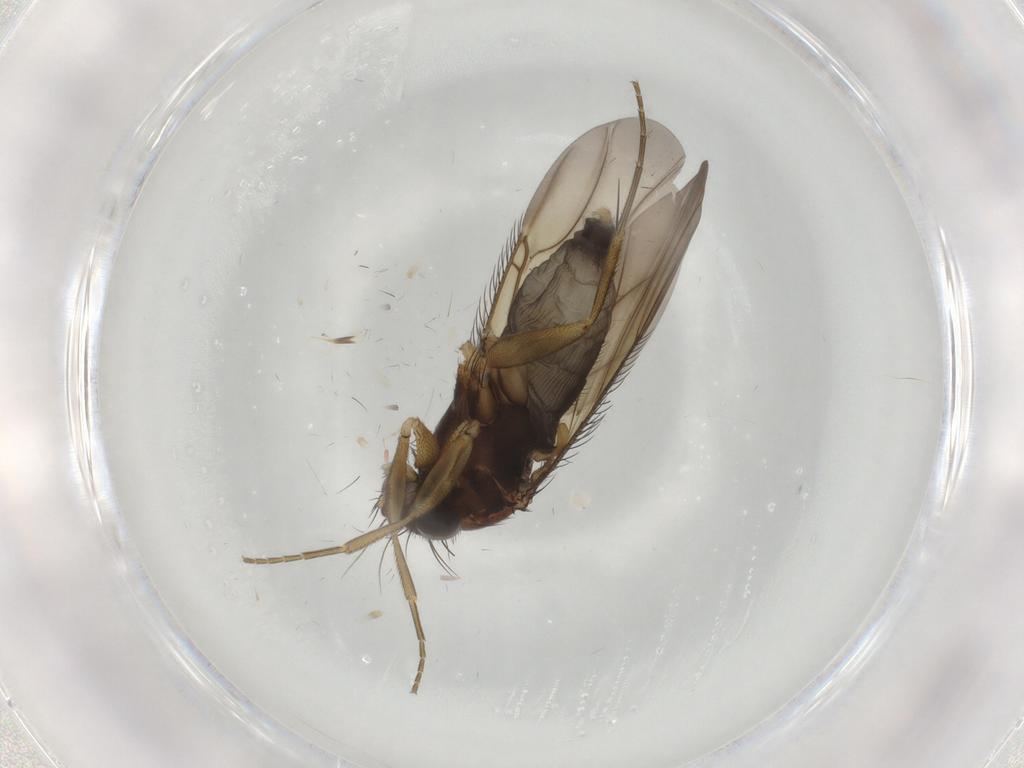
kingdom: Animalia
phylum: Arthropoda
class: Insecta
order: Diptera
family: Phoridae
